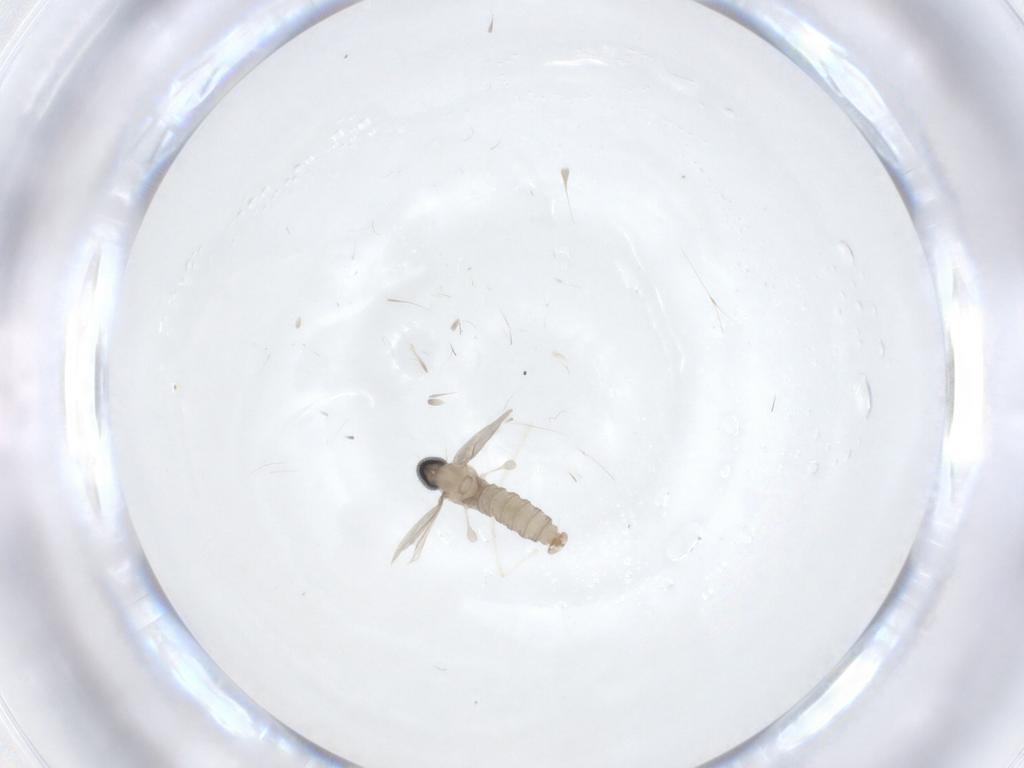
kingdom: Animalia
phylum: Arthropoda
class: Insecta
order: Diptera
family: Cecidomyiidae
